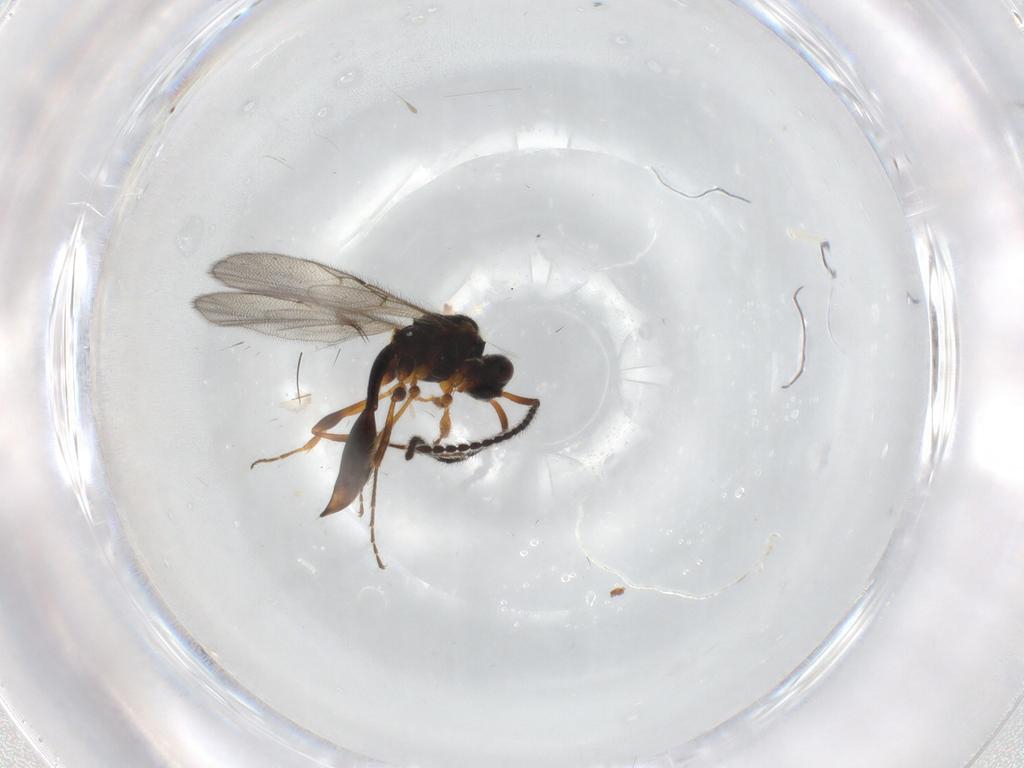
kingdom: Animalia
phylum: Arthropoda
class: Insecta
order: Hymenoptera
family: Diapriidae
